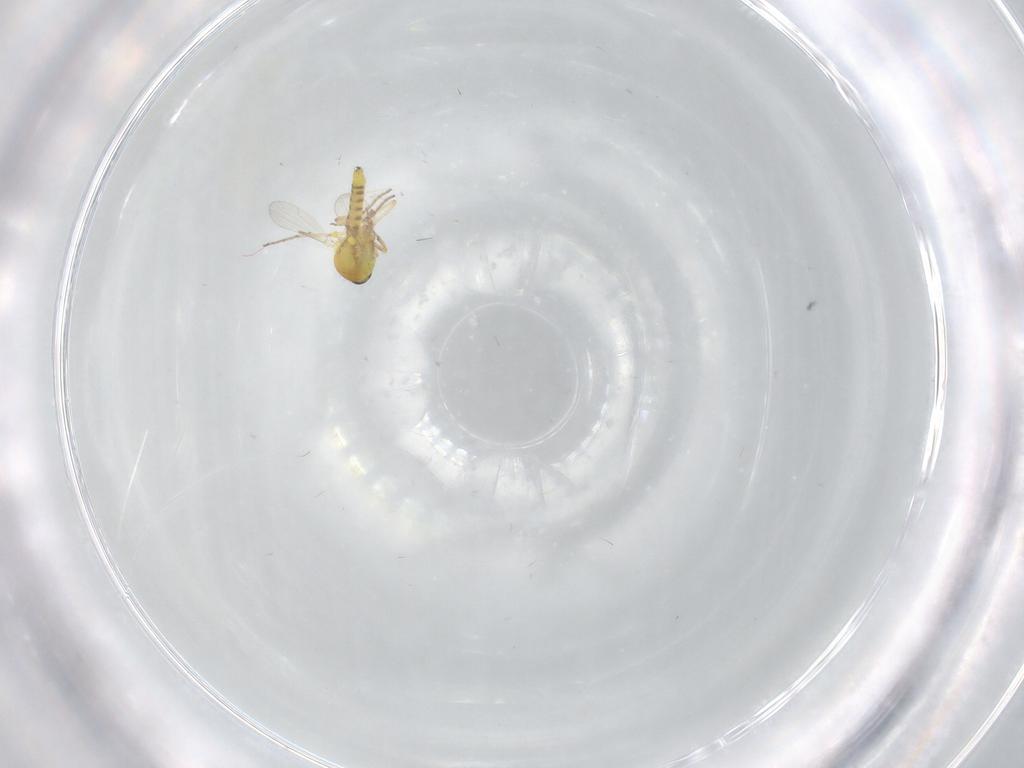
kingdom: Animalia
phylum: Arthropoda
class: Insecta
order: Diptera
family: Ceratopogonidae
